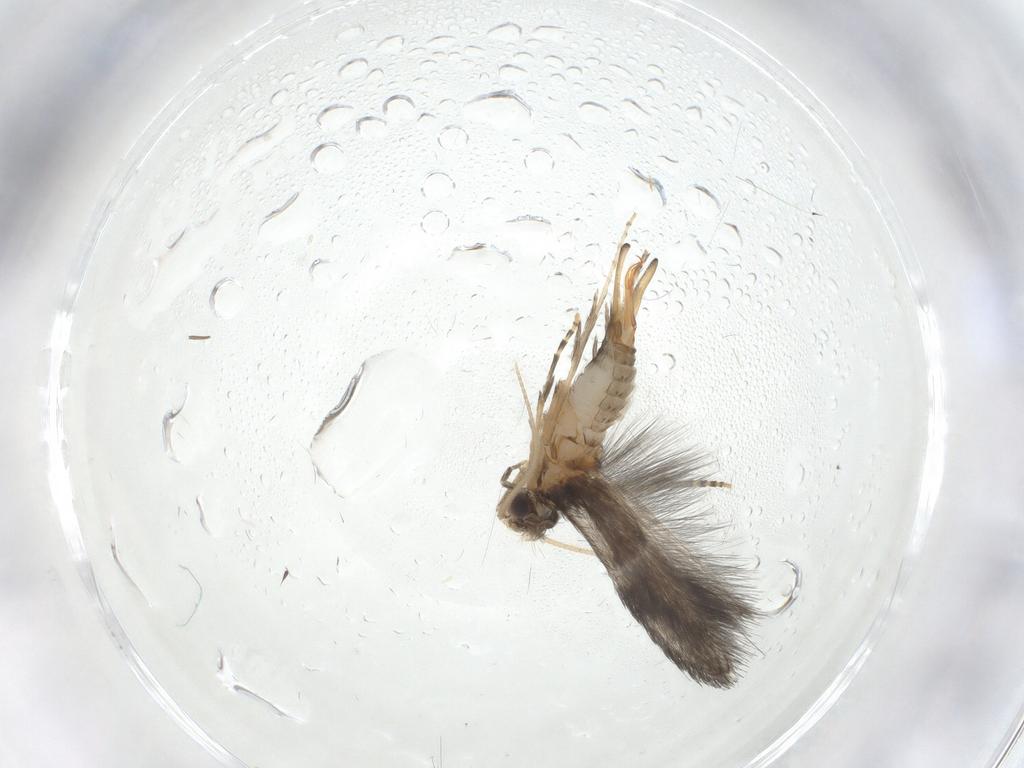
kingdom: Animalia
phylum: Arthropoda
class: Insecta
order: Trichoptera
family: Hydroptilidae
